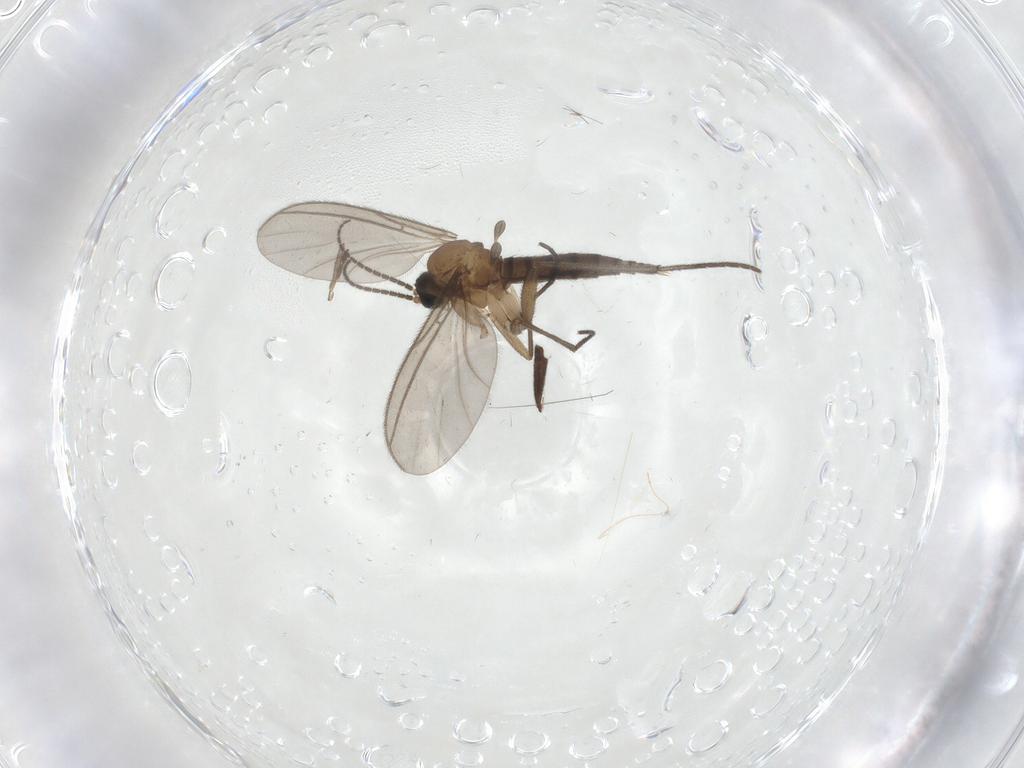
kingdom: Animalia
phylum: Arthropoda
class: Insecta
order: Diptera
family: Sciaridae
